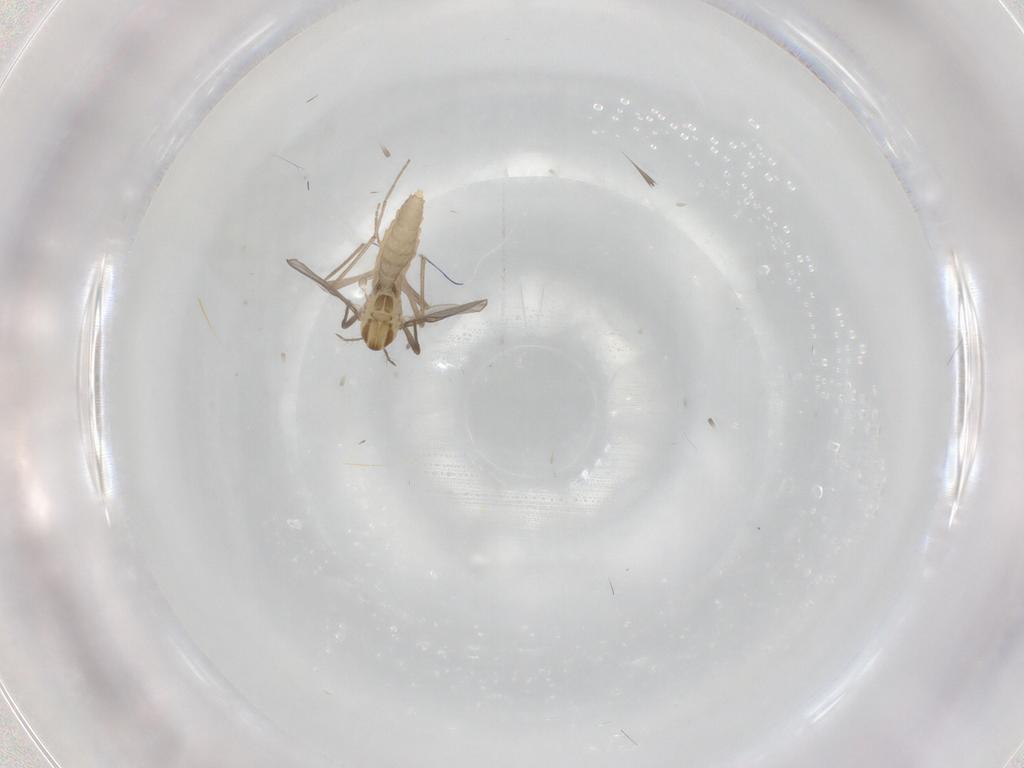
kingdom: Animalia
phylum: Arthropoda
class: Insecta
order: Diptera
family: Chironomidae
